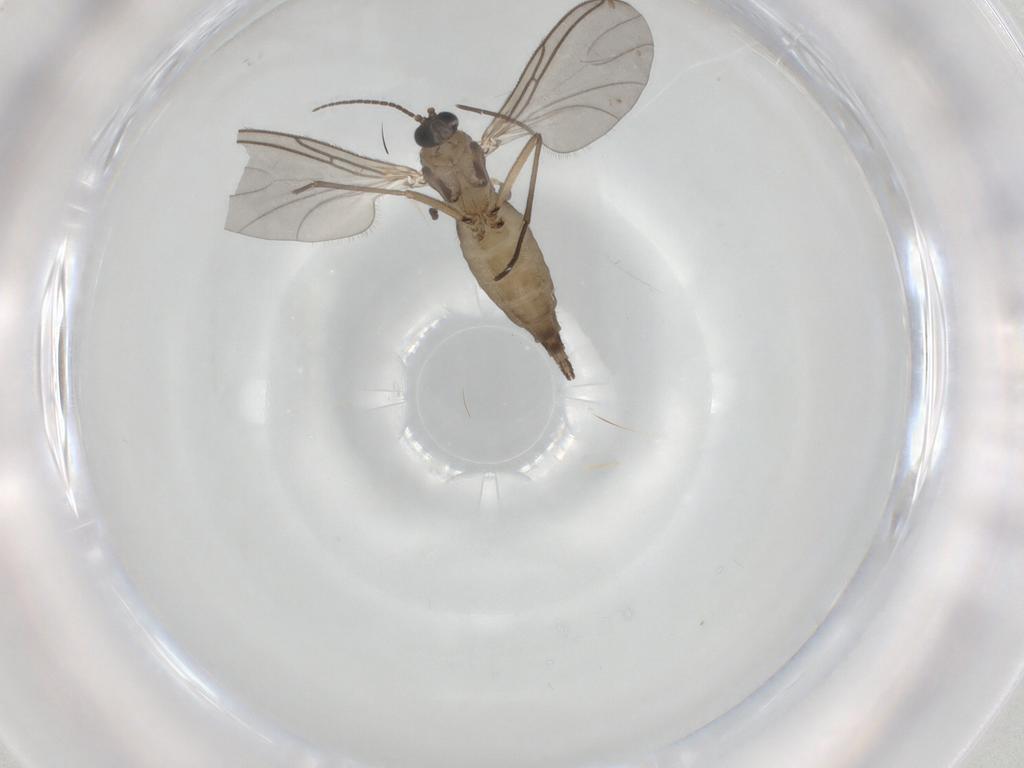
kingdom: Animalia
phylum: Arthropoda
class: Insecta
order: Diptera
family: Sciaridae
